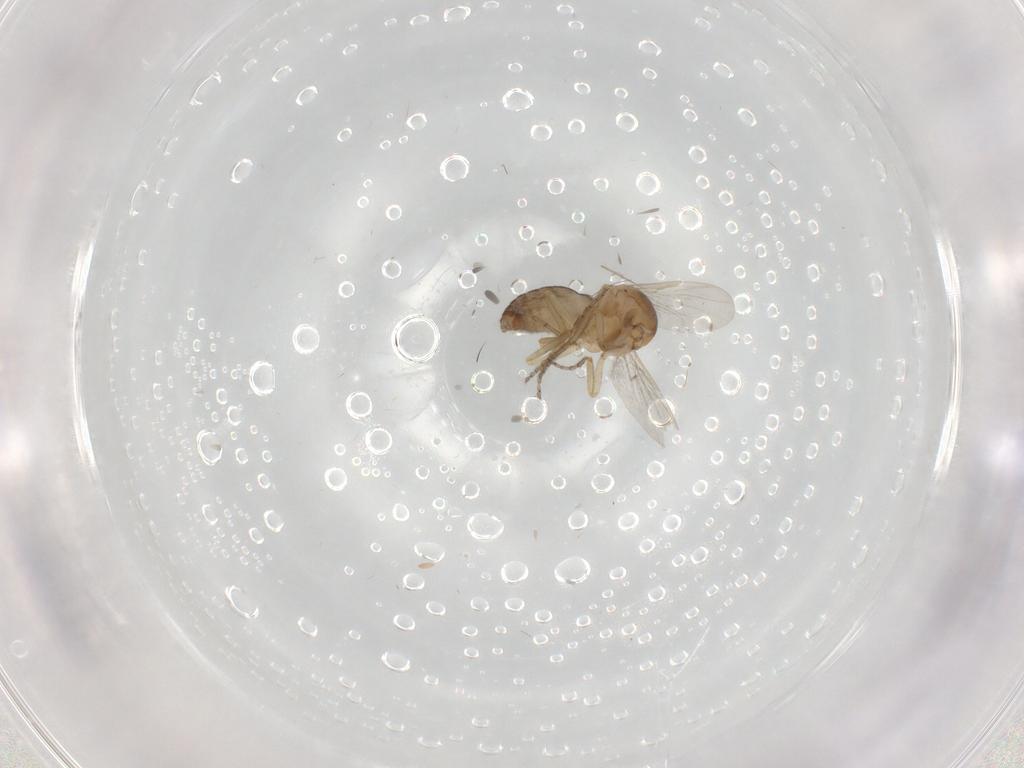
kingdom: Animalia
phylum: Arthropoda
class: Insecta
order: Diptera
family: Ceratopogonidae
